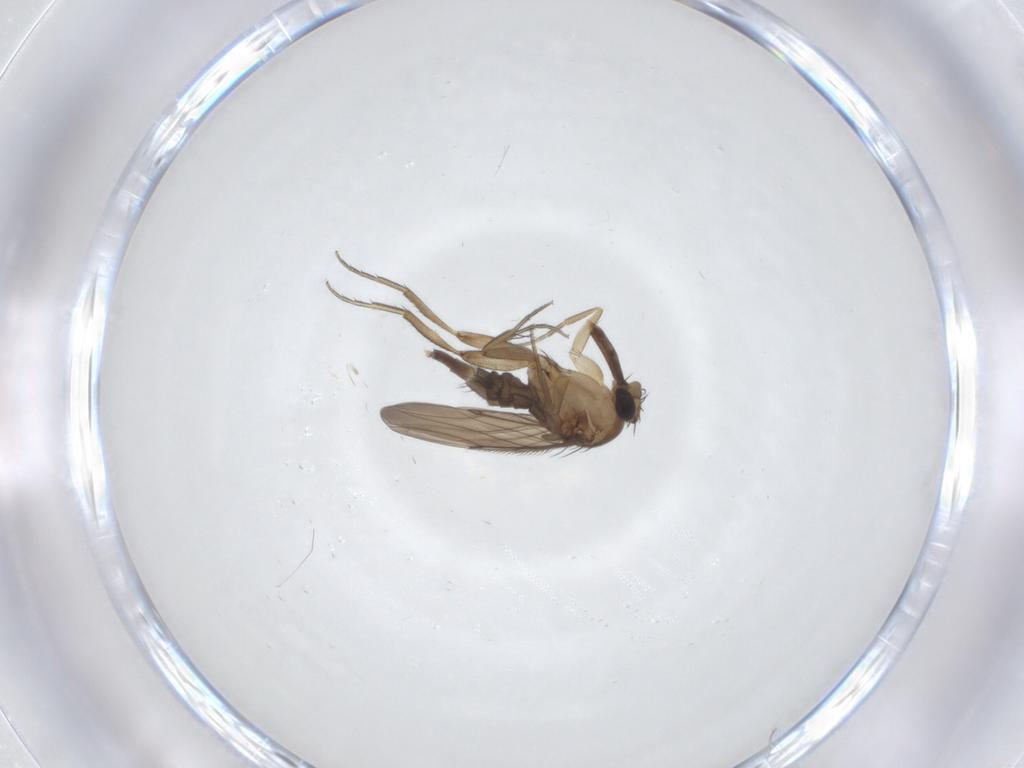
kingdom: Animalia
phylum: Arthropoda
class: Insecta
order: Diptera
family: Phoridae
